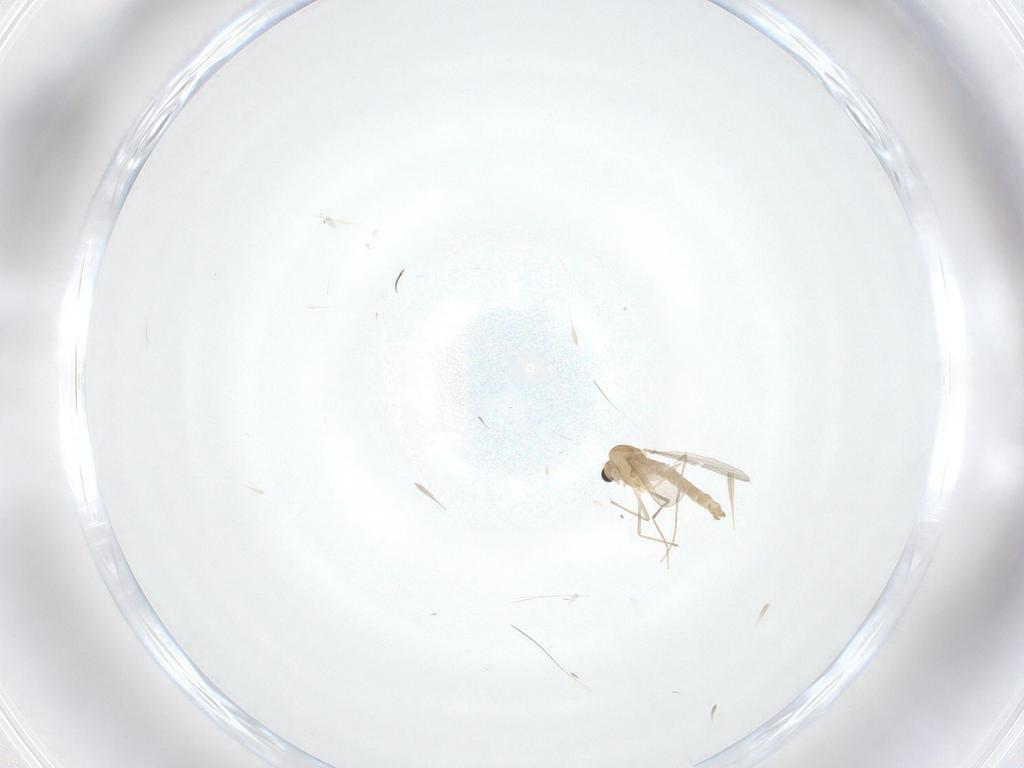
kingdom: Animalia
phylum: Arthropoda
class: Insecta
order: Diptera
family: Chironomidae
